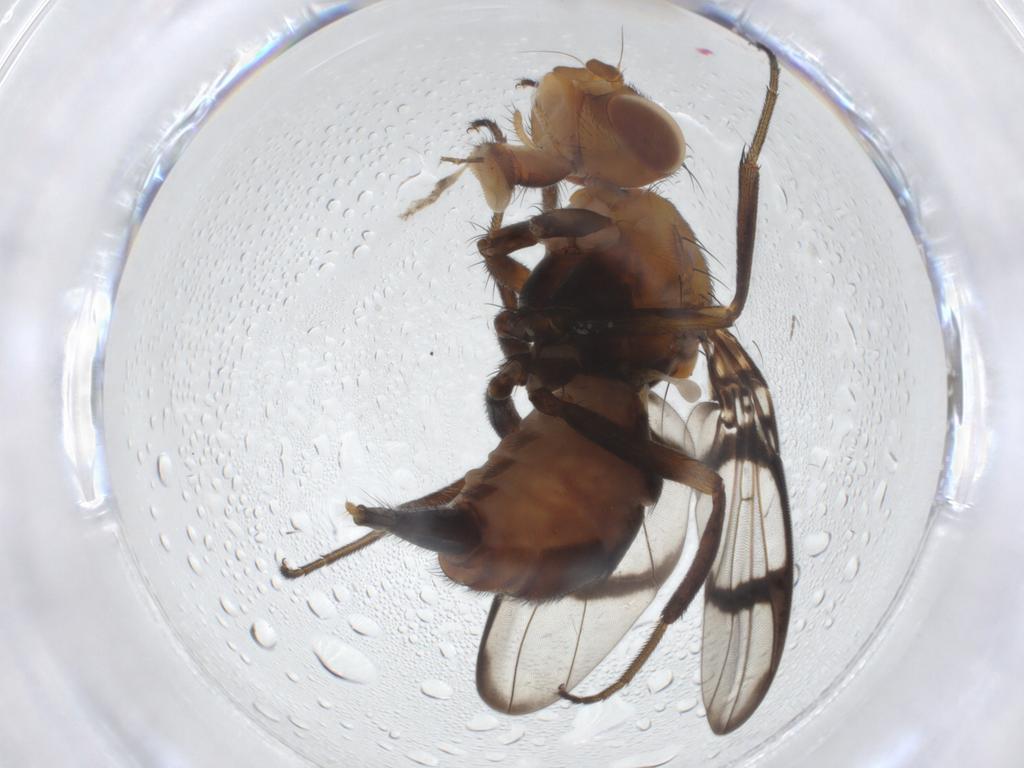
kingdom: Animalia
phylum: Arthropoda
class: Insecta
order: Diptera
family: Richardiidae
